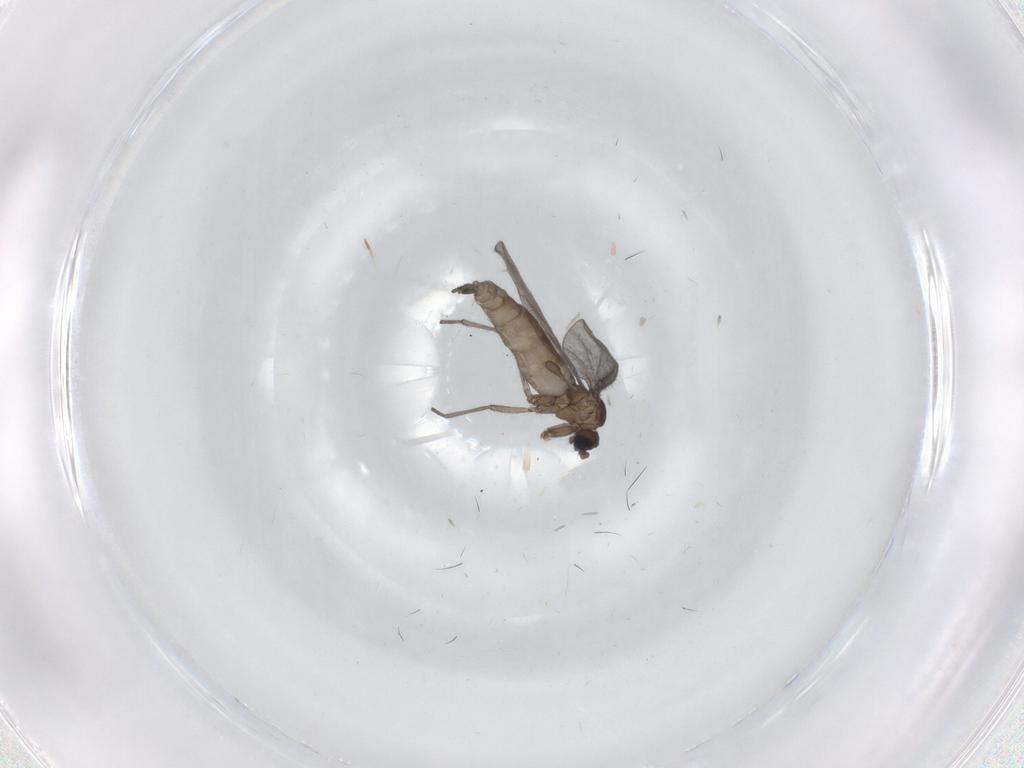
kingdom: Animalia
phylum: Arthropoda
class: Insecta
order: Diptera
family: Sciaridae
